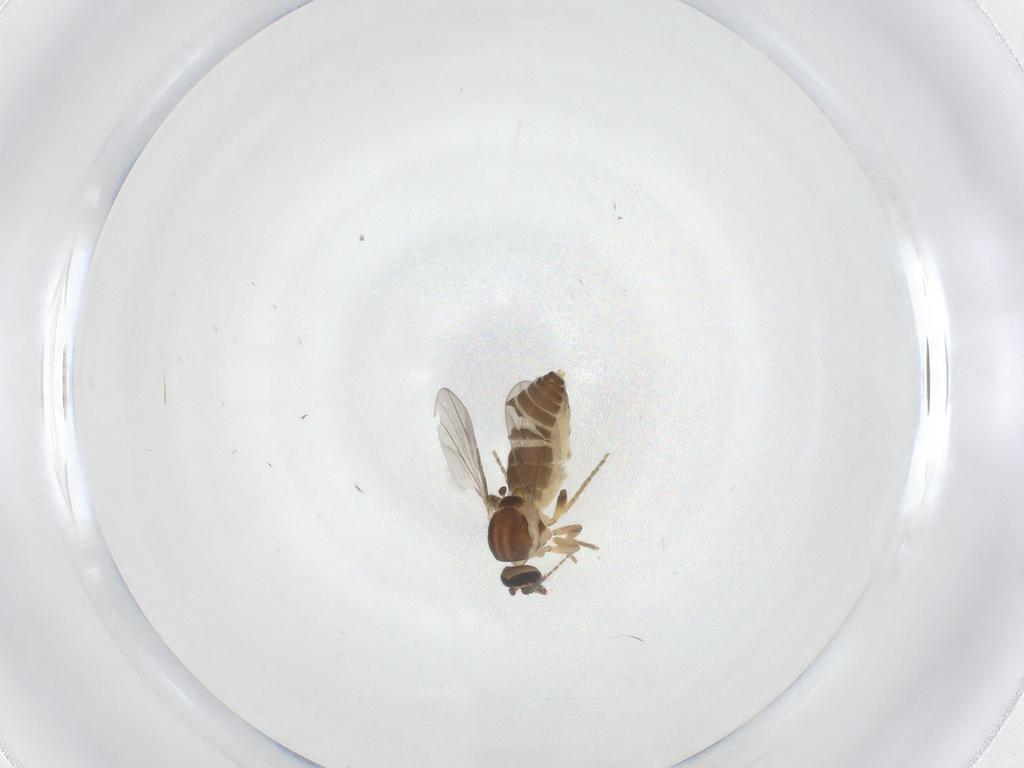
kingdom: Animalia
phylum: Arthropoda
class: Insecta
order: Diptera
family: Ceratopogonidae
